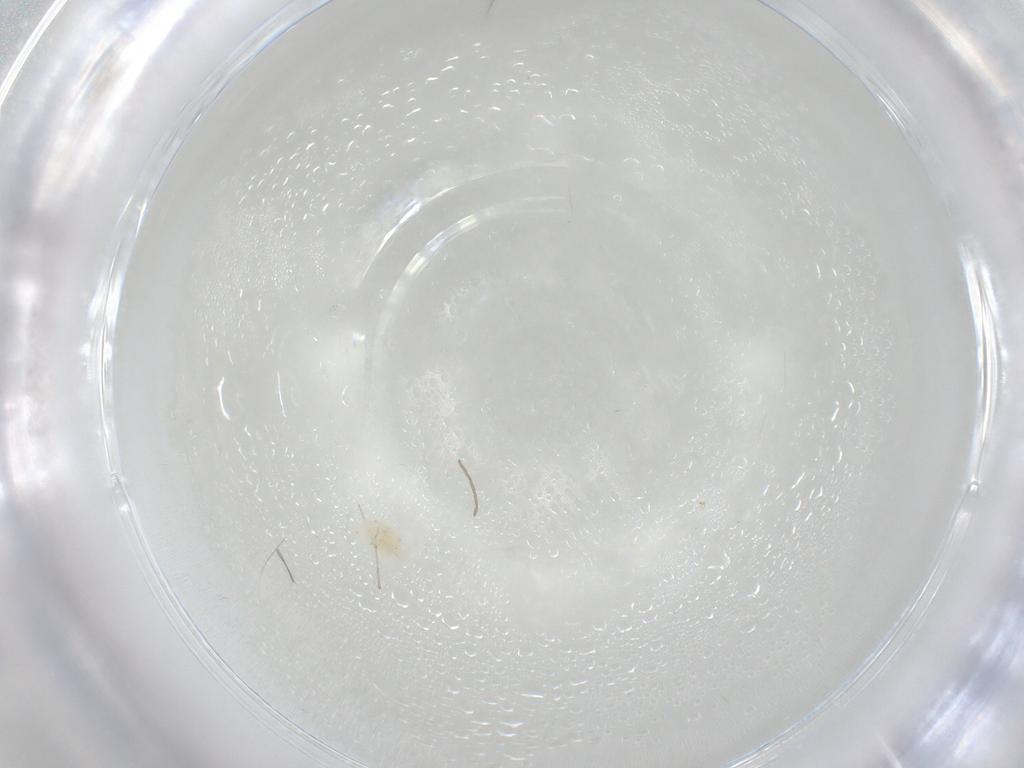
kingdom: Animalia
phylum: Arthropoda
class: Arachnida
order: Trombidiformes
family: Anystidae
